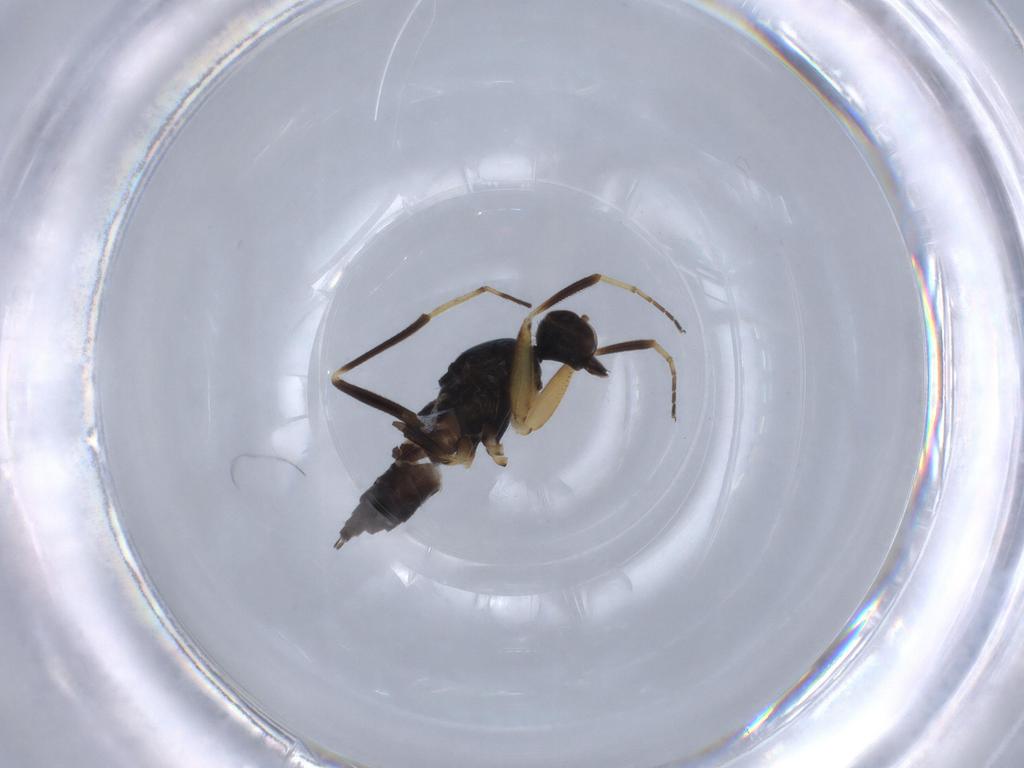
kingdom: Animalia
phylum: Arthropoda
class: Insecta
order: Diptera
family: Hybotidae
